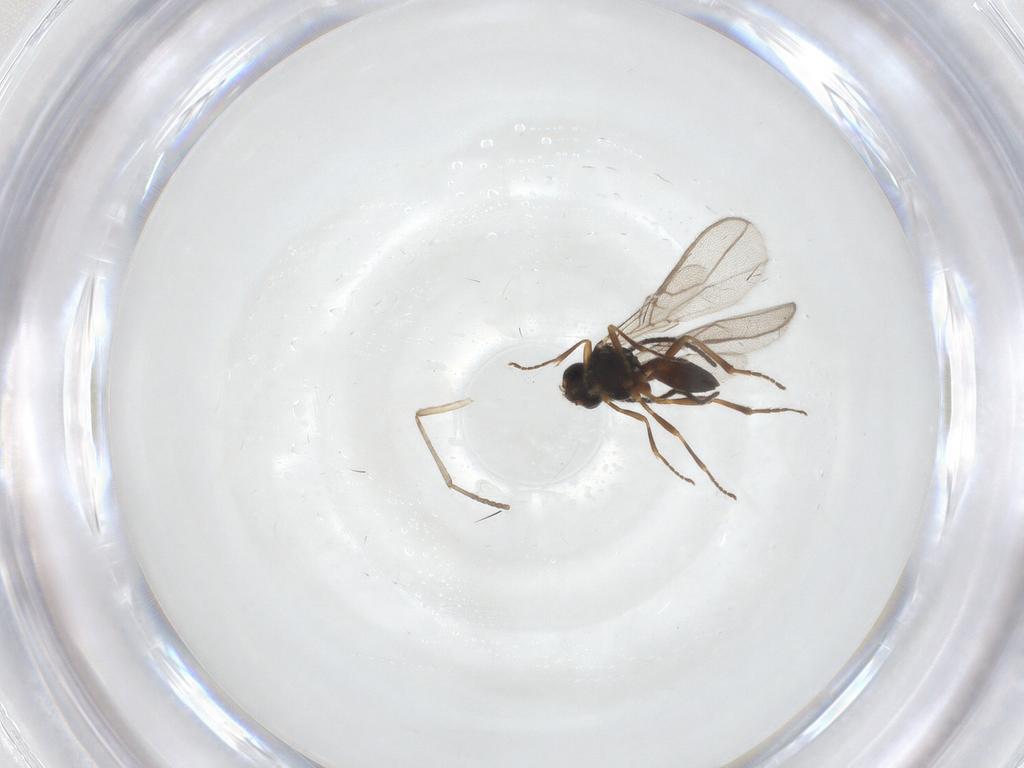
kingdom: Animalia
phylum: Arthropoda
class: Insecta
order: Hymenoptera
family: Braconidae
